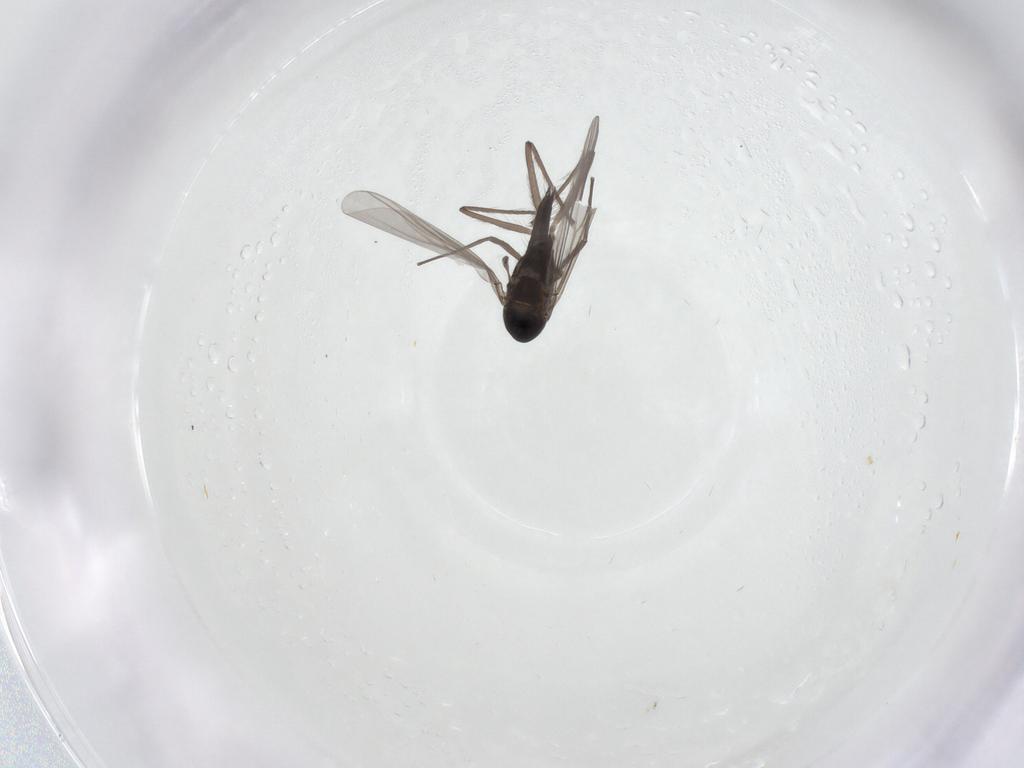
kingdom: Animalia
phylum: Arthropoda
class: Insecta
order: Diptera
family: Chironomidae
